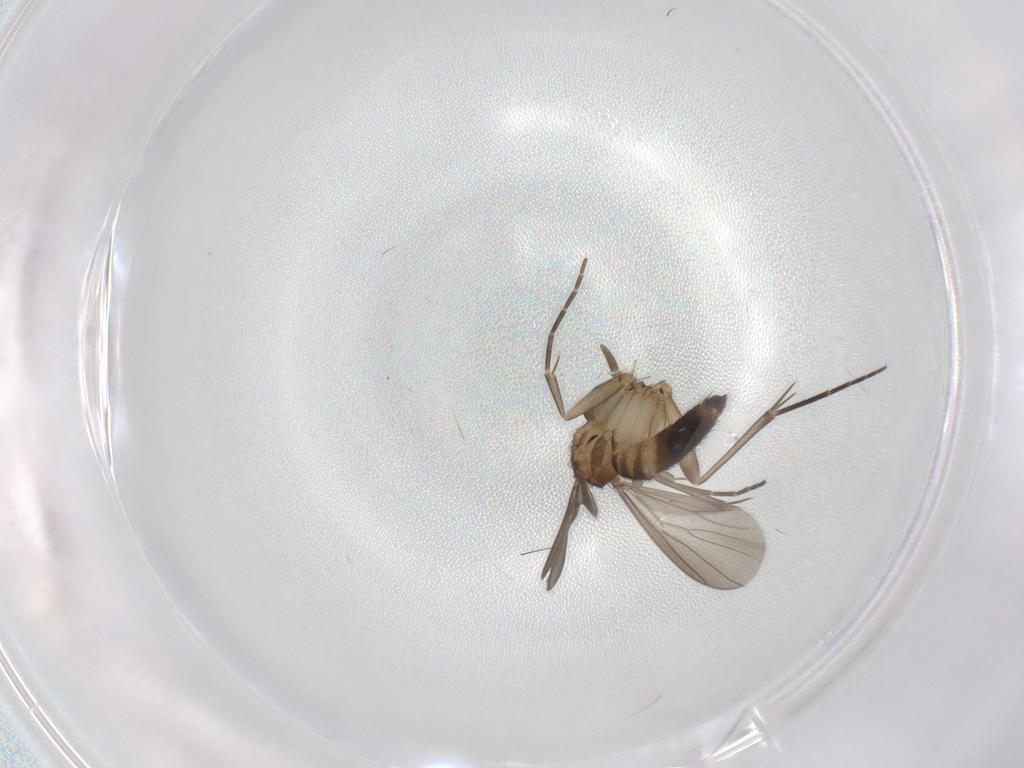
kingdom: Animalia
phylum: Arthropoda
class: Insecta
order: Diptera
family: Mycetophilidae
